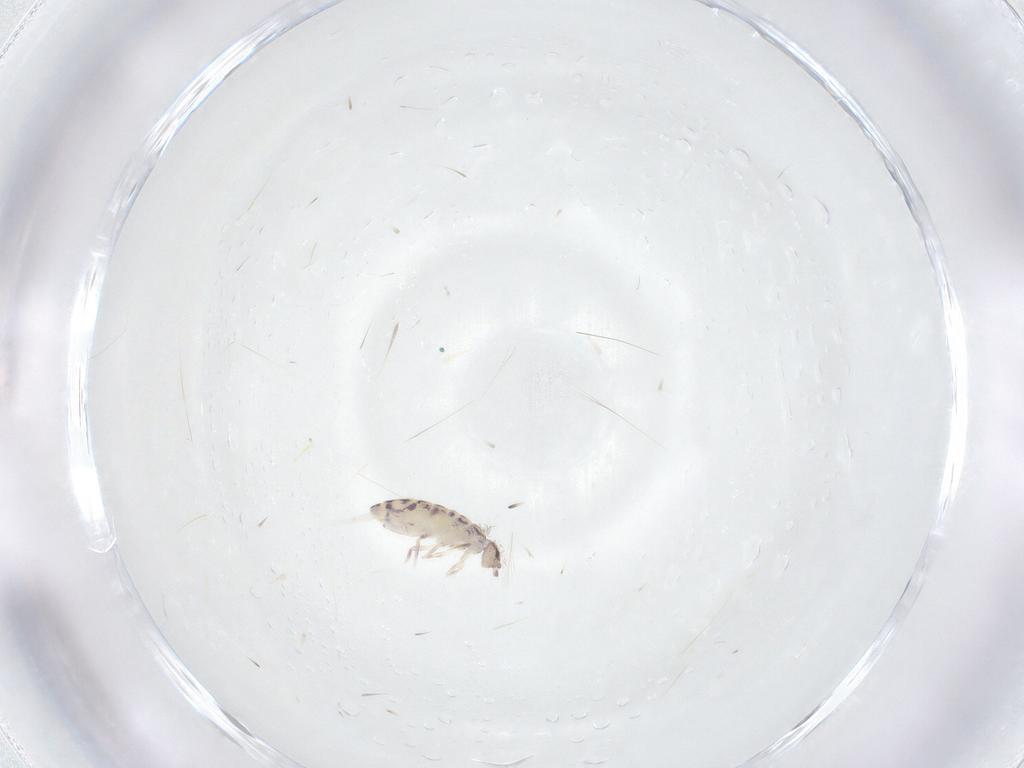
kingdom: Animalia
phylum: Arthropoda
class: Collembola
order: Entomobryomorpha
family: Entomobryidae
